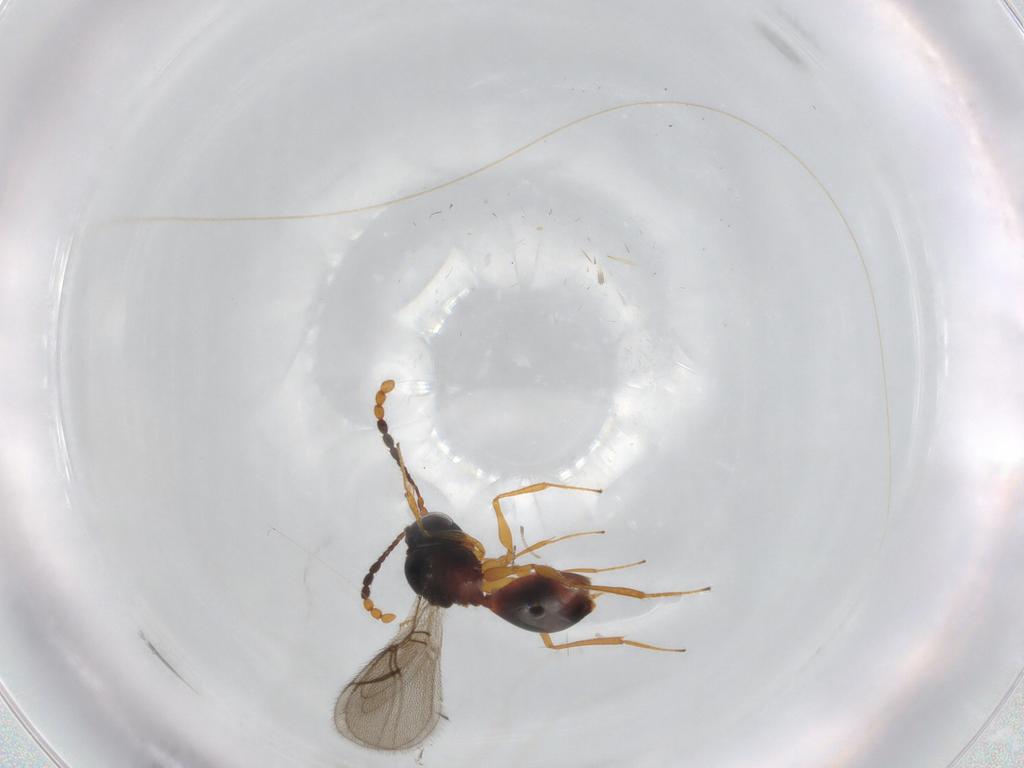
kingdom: Animalia
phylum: Arthropoda
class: Insecta
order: Hymenoptera
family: Figitidae
